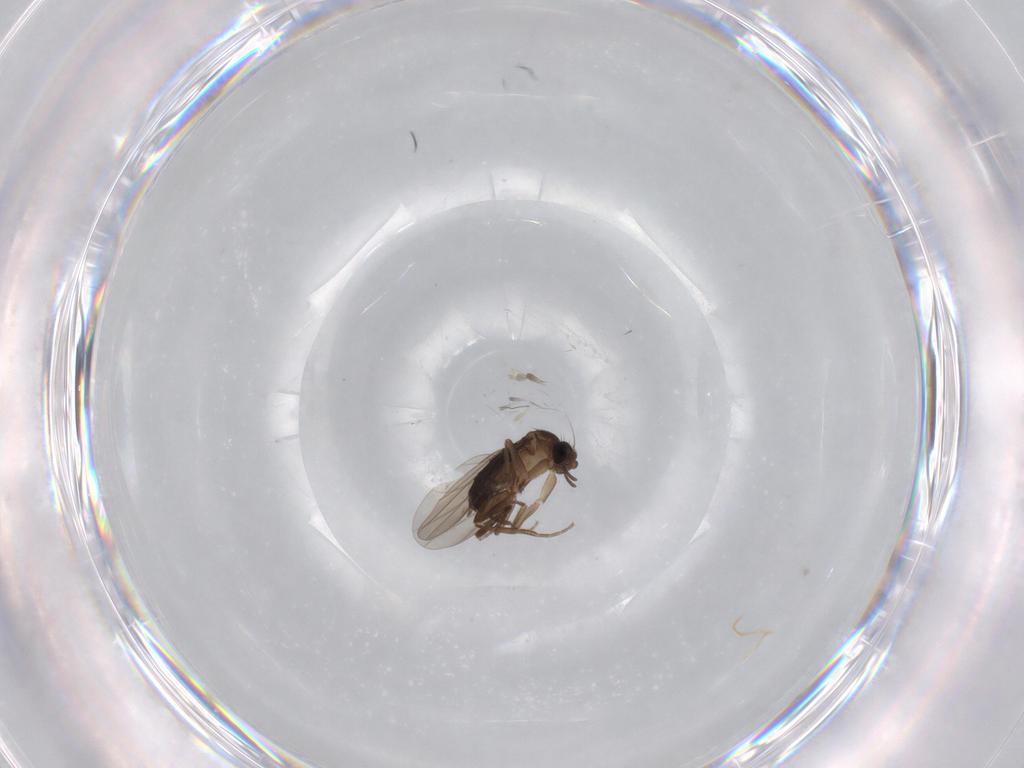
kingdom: Animalia
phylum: Arthropoda
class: Insecta
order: Diptera
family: Phoridae
